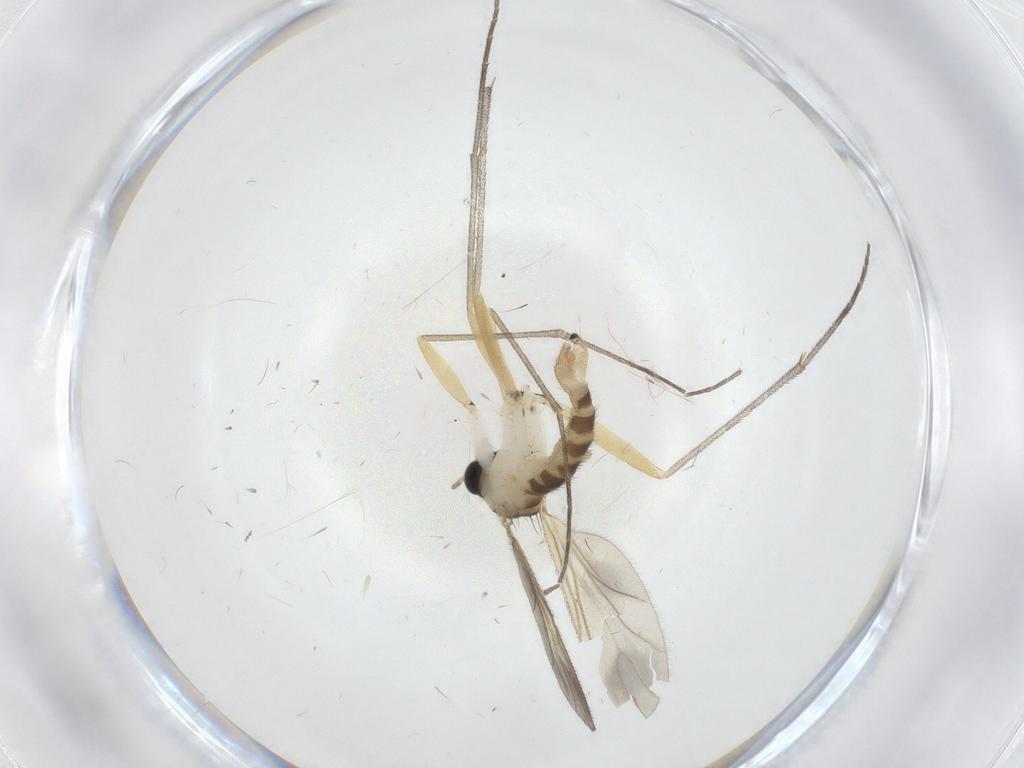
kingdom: Animalia
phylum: Arthropoda
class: Insecta
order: Diptera
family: Sciaridae
